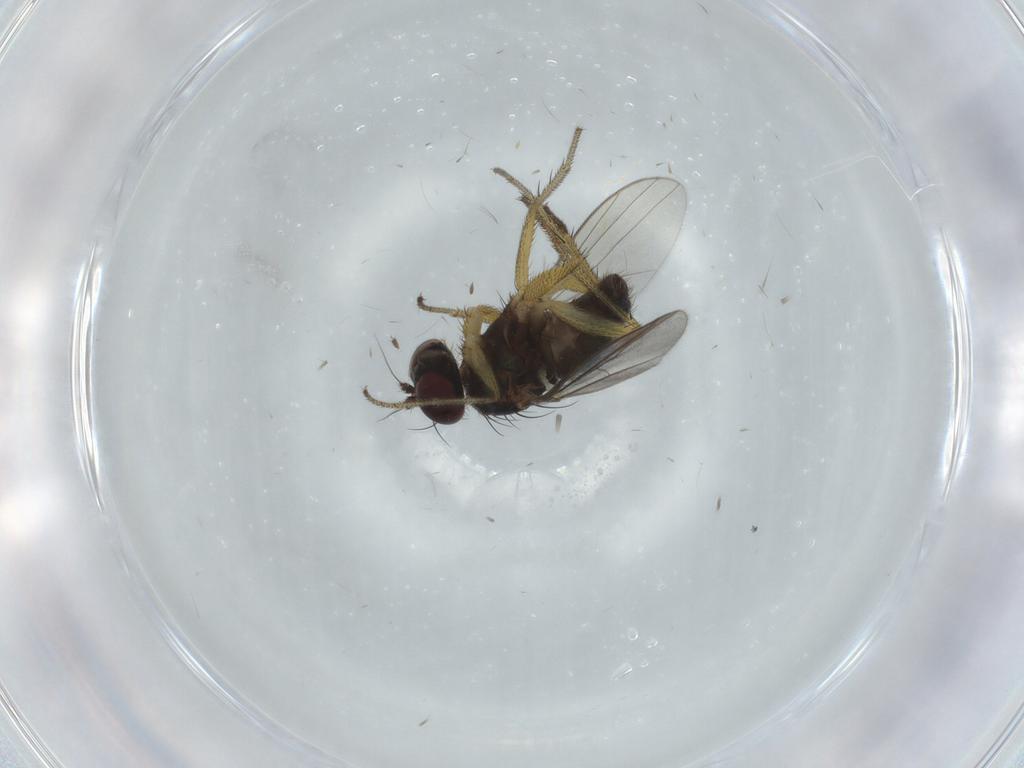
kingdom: Animalia
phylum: Arthropoda
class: Insecta
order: Diptera
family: Dolichopodidae
